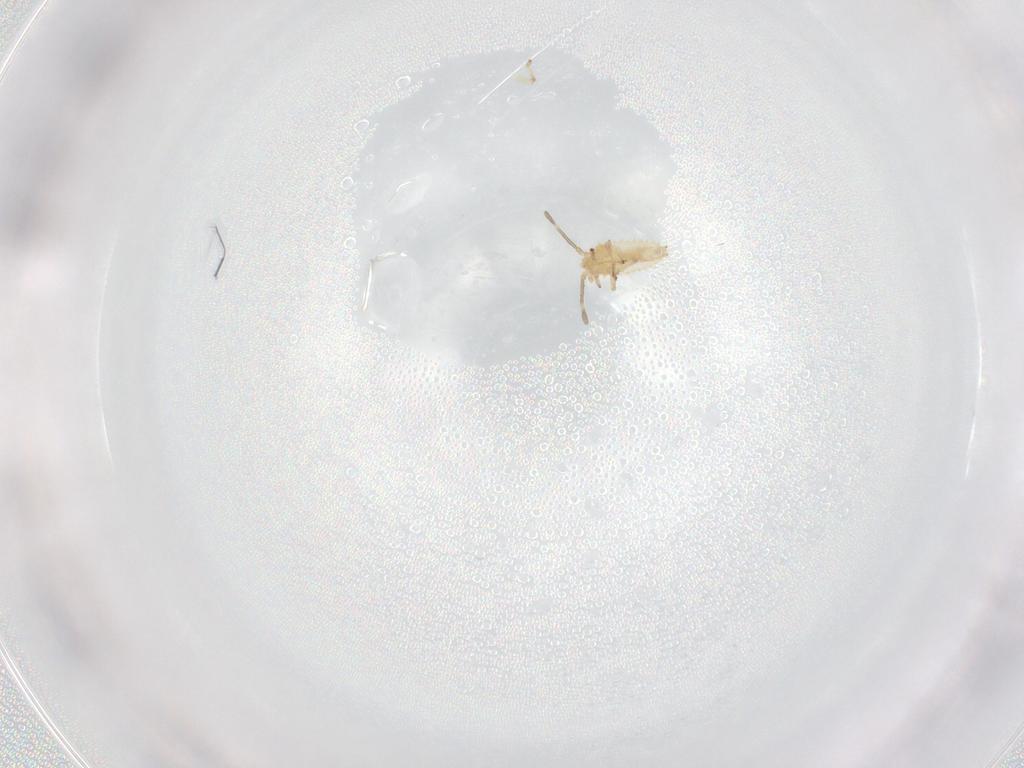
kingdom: Animalia
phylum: Arthropoda
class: Insecta
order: Hemiptera
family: Tingidae
